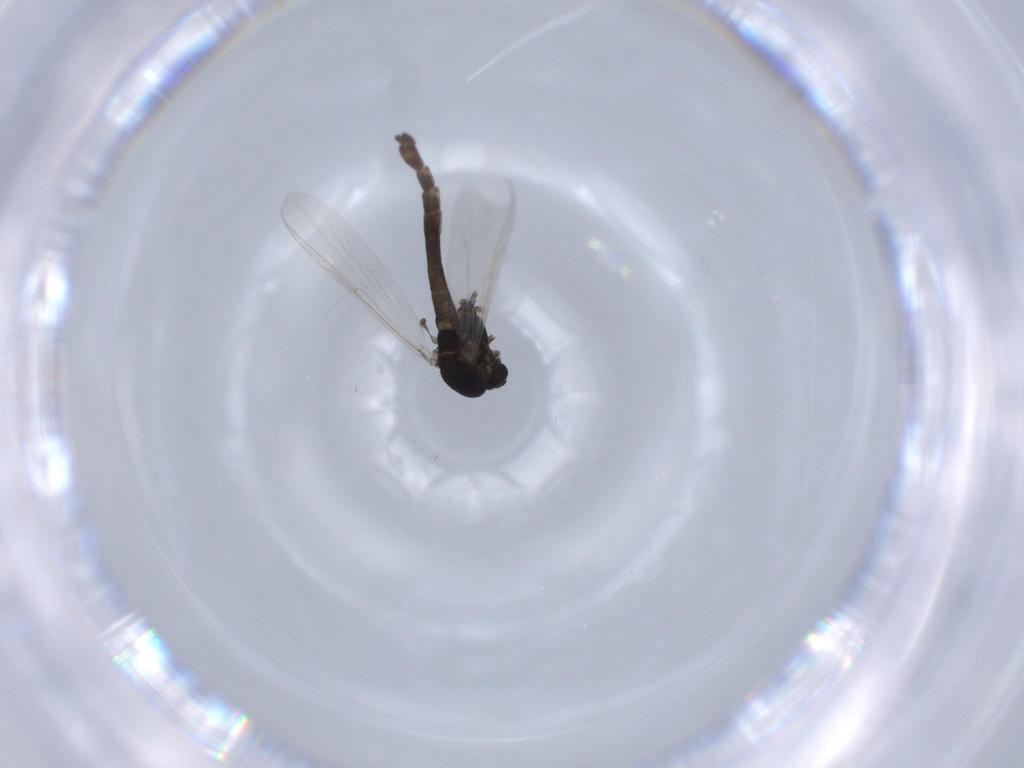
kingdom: Animalia
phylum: Arthropoda
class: Insecta
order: Diptera
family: Chironomidae
